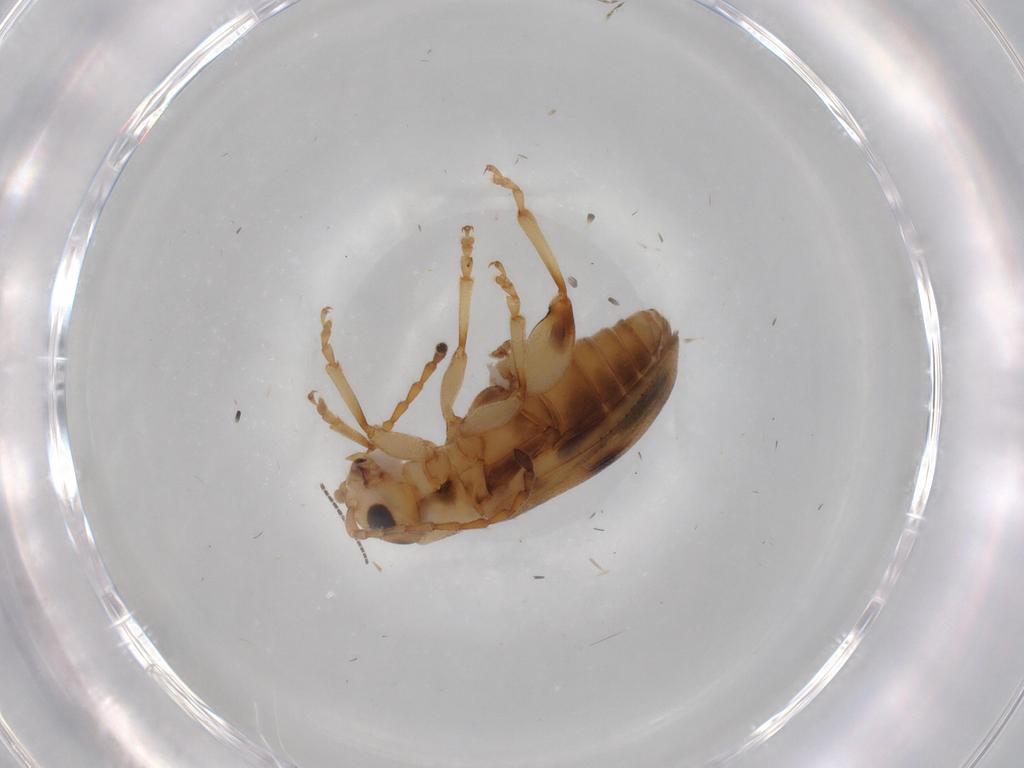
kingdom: Animalia
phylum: Arthropoda
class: Insecta
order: Coleoptera
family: Chrysomelidae
